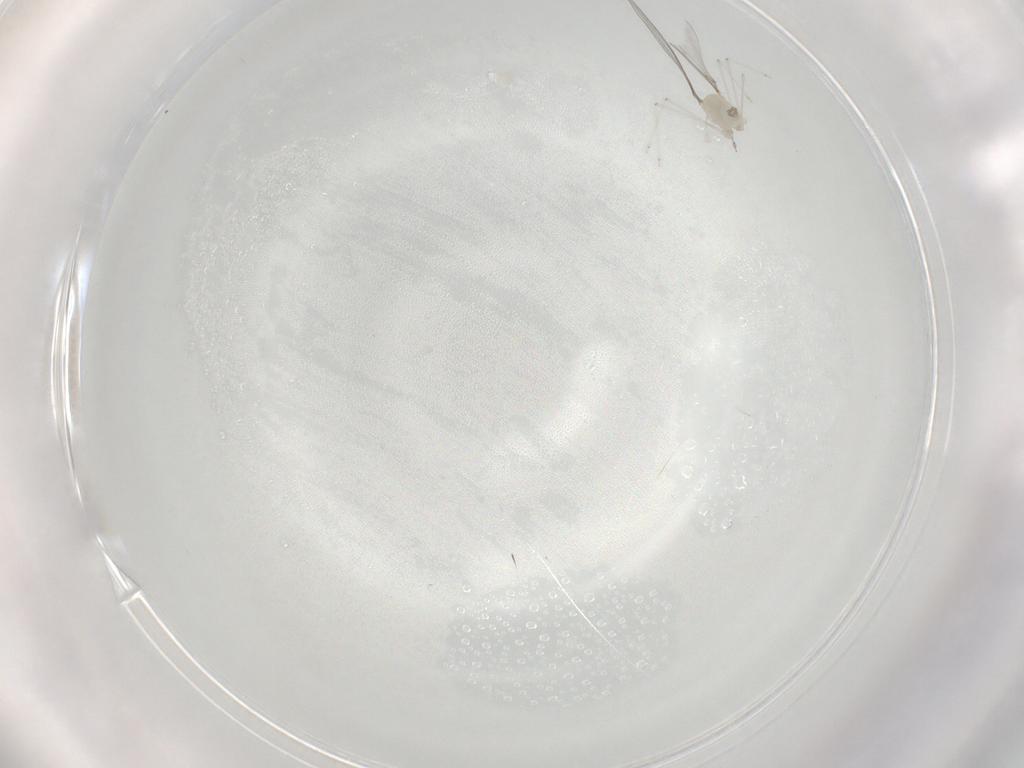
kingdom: Animalia
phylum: Arthropoda
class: Insecta
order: Diptera
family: Cecidomyiidae
